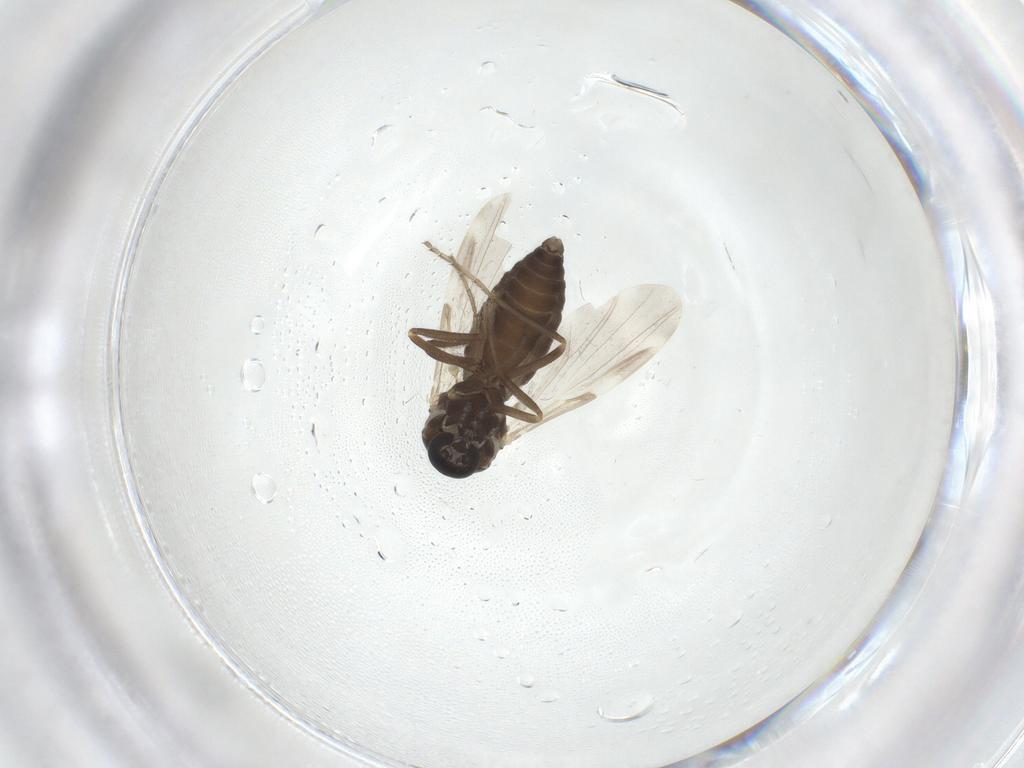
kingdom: Animalia
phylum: Arthropoda
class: Insecta
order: Diptera
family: Ceratopogonidae
